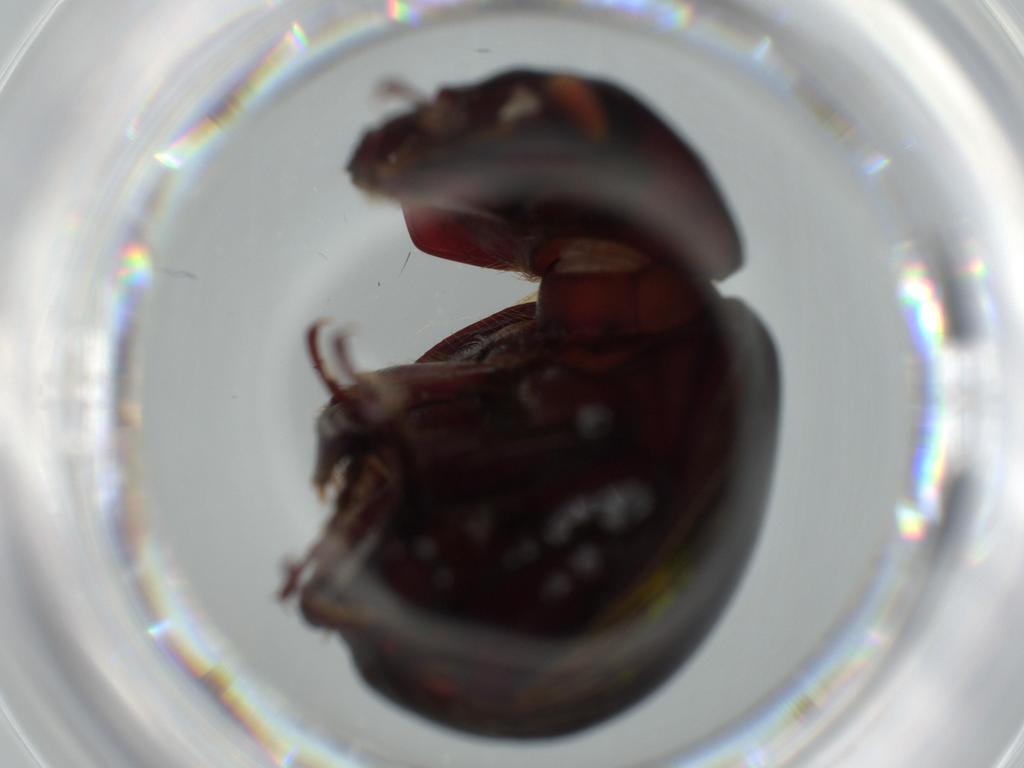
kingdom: Animalia
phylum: Arthropoda
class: Insecta
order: Coleoptera
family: Hybosoridae
